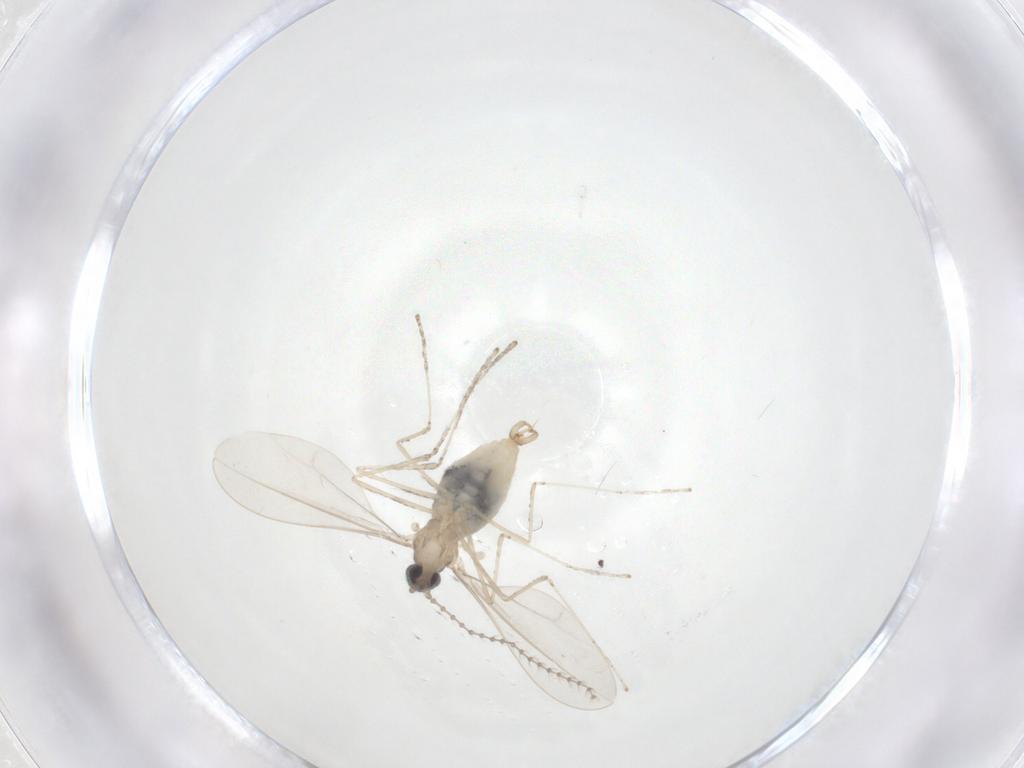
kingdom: Animalia
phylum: Arthropoda
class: Insecta
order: Diptera
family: Cecidomyiidae
